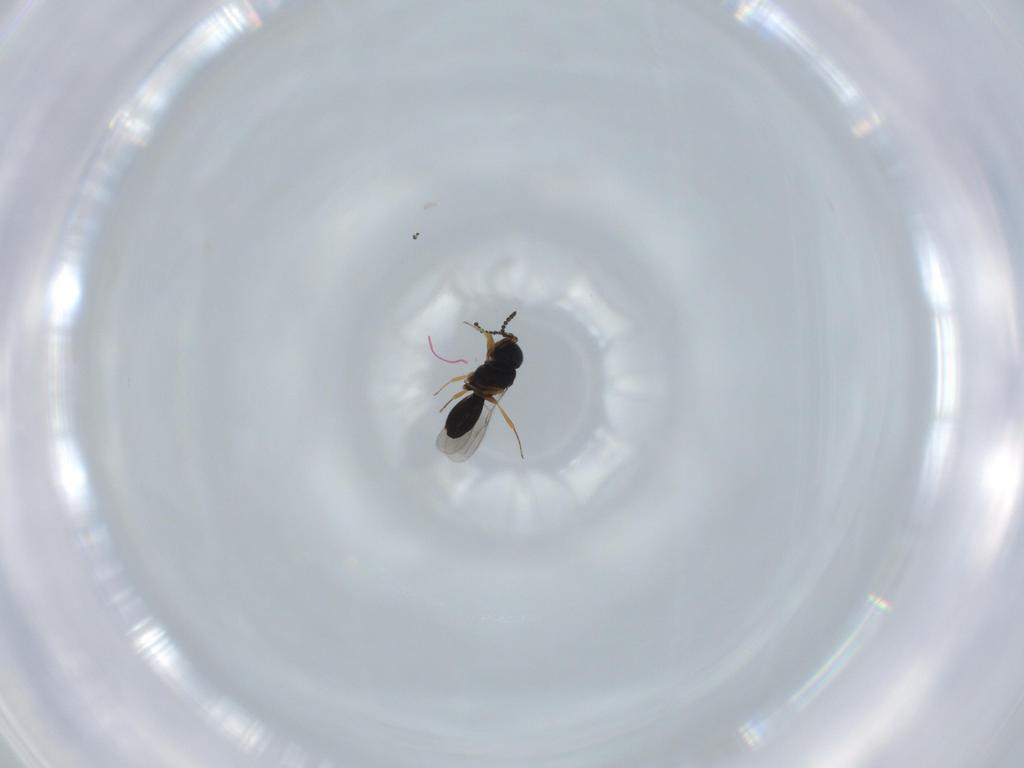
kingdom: Animalia
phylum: Arthropoda
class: Insecta
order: Hymenoptera
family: Scelionidae
